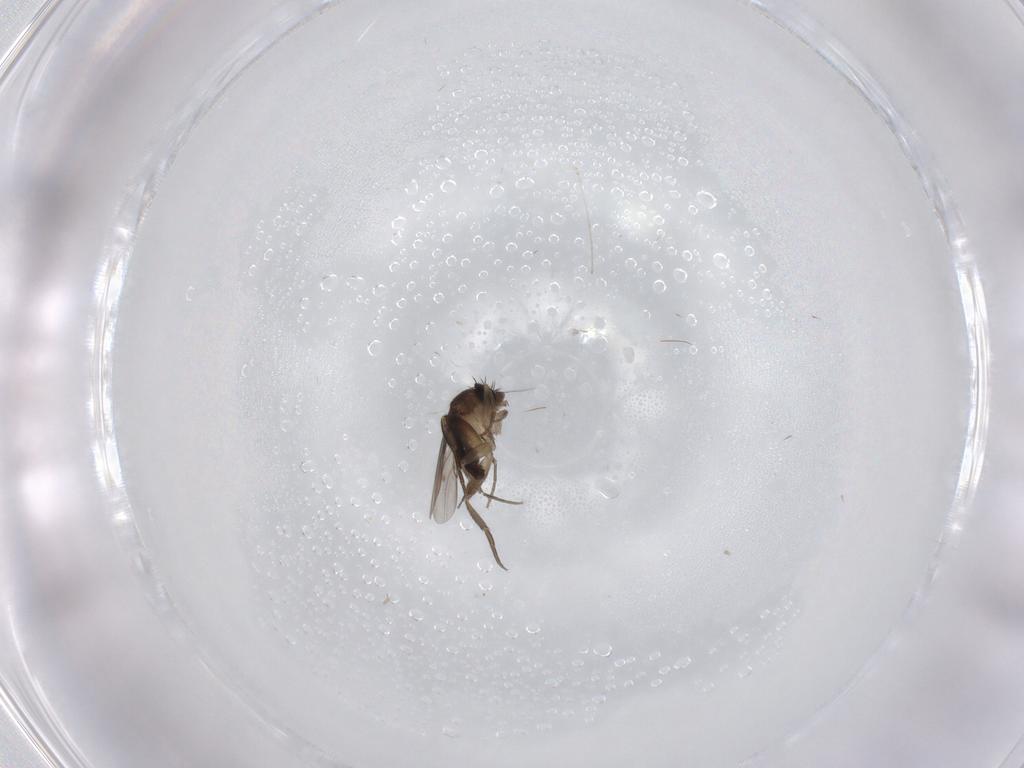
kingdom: Animalia
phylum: Arthropoda
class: Insecta
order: Diptera
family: Phoridae
